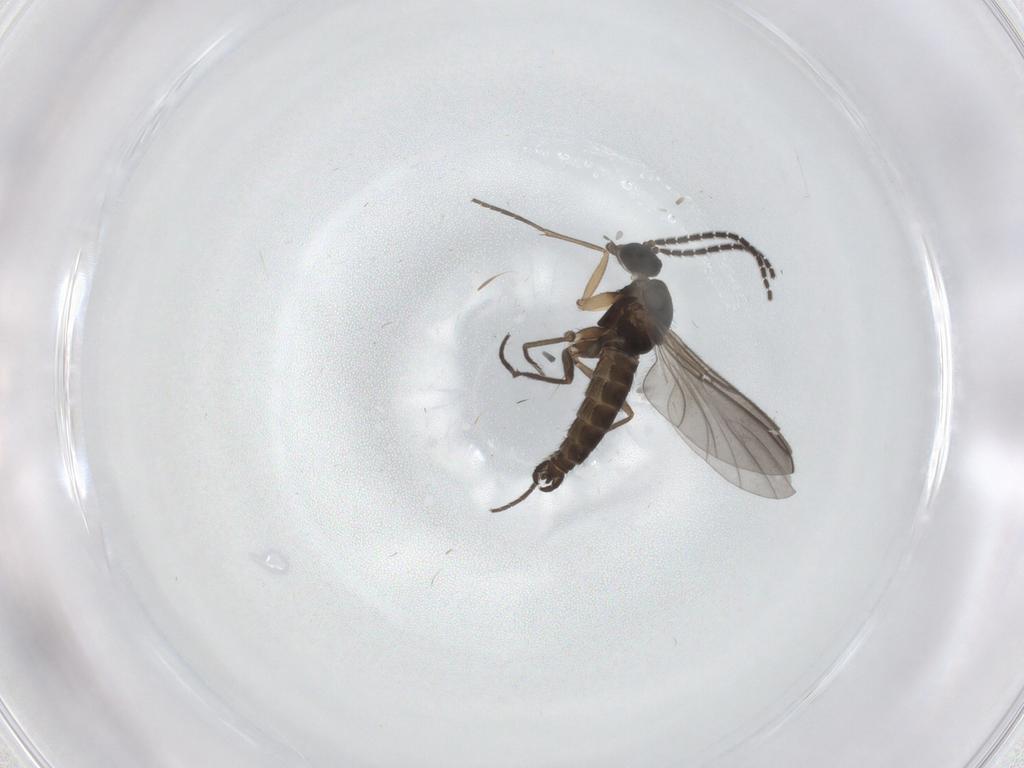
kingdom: Animalia
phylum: Arthropoda
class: Insecta
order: Diptera
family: Sciaridae
